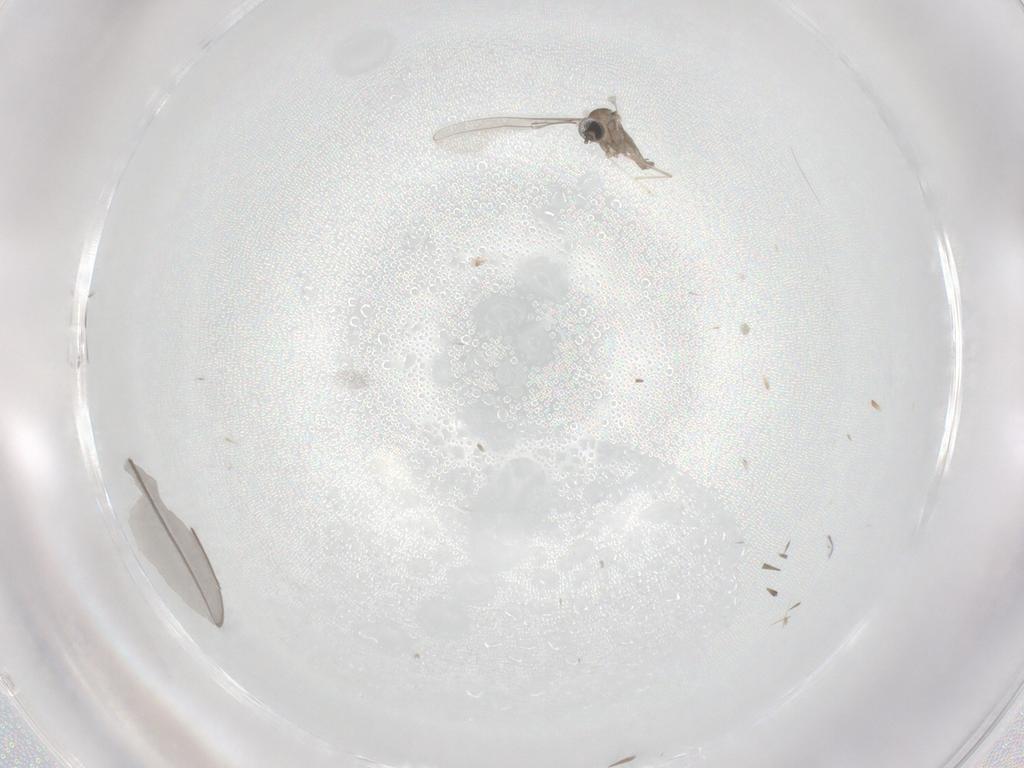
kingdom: Animalia
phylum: Arthropoda
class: Insecta
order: Diptera
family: Cecidomyiidae
